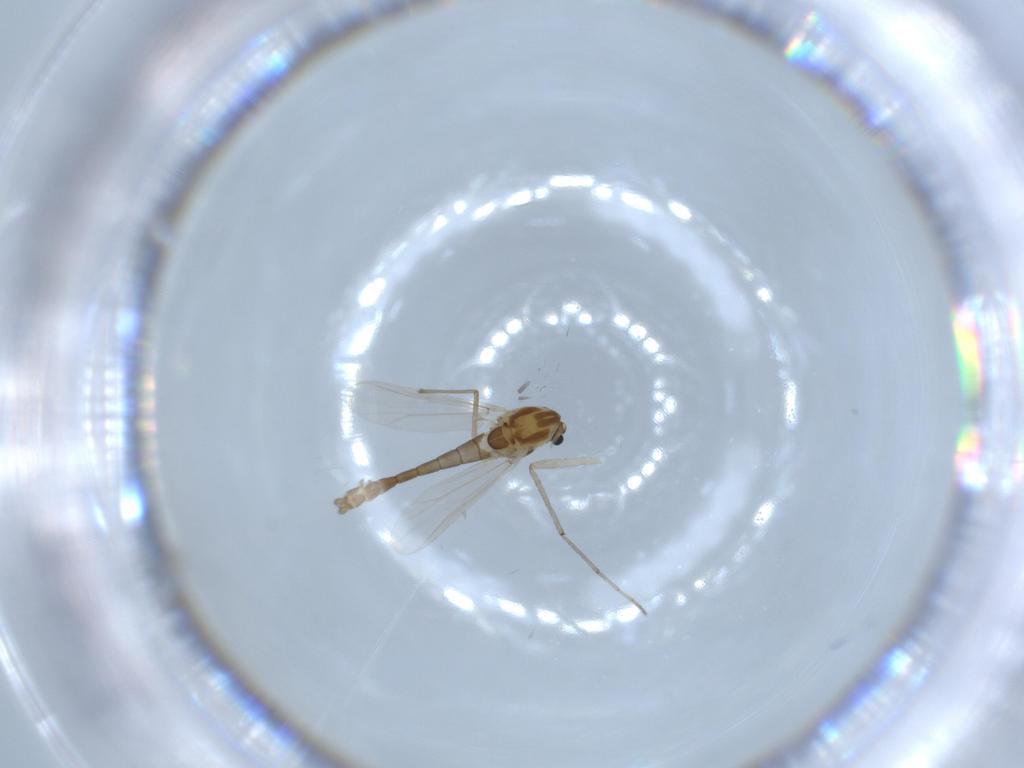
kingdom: Animalia
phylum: Arthropoda
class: Insecta
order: Diptera
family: Chironomidae
